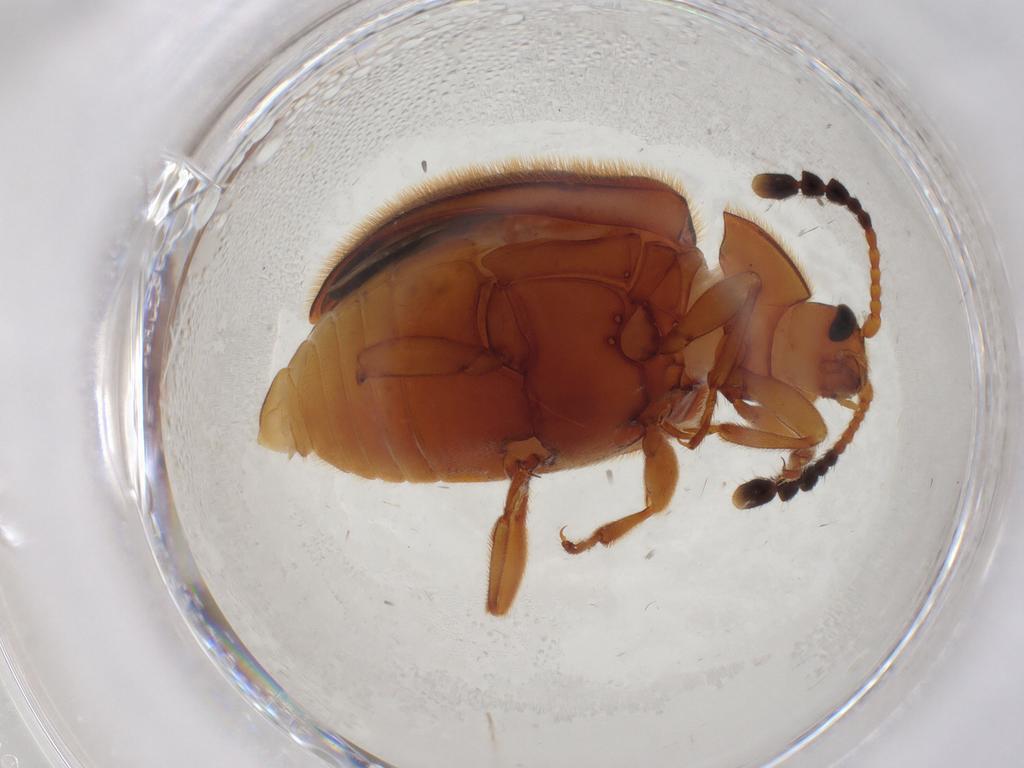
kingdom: Animalia
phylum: Arthropoda
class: Insecta
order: Coleoptera
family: Endomychidae
